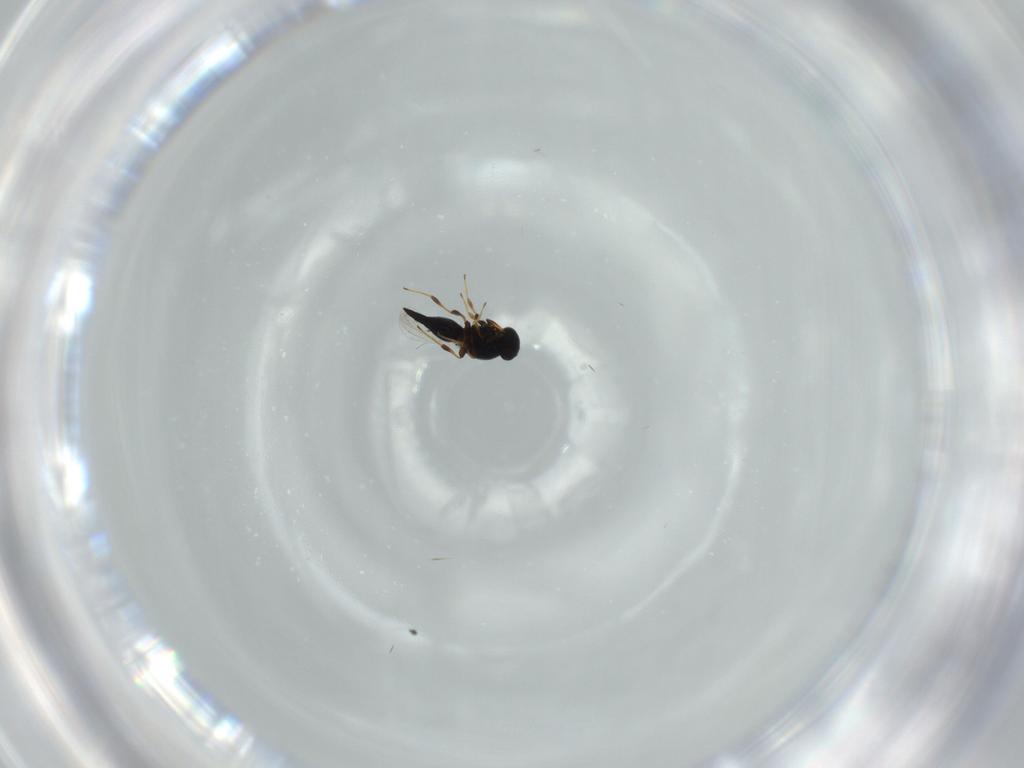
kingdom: Animalia
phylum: Arthropoda
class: Insecta
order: Hymenoptera
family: Platygastridae
